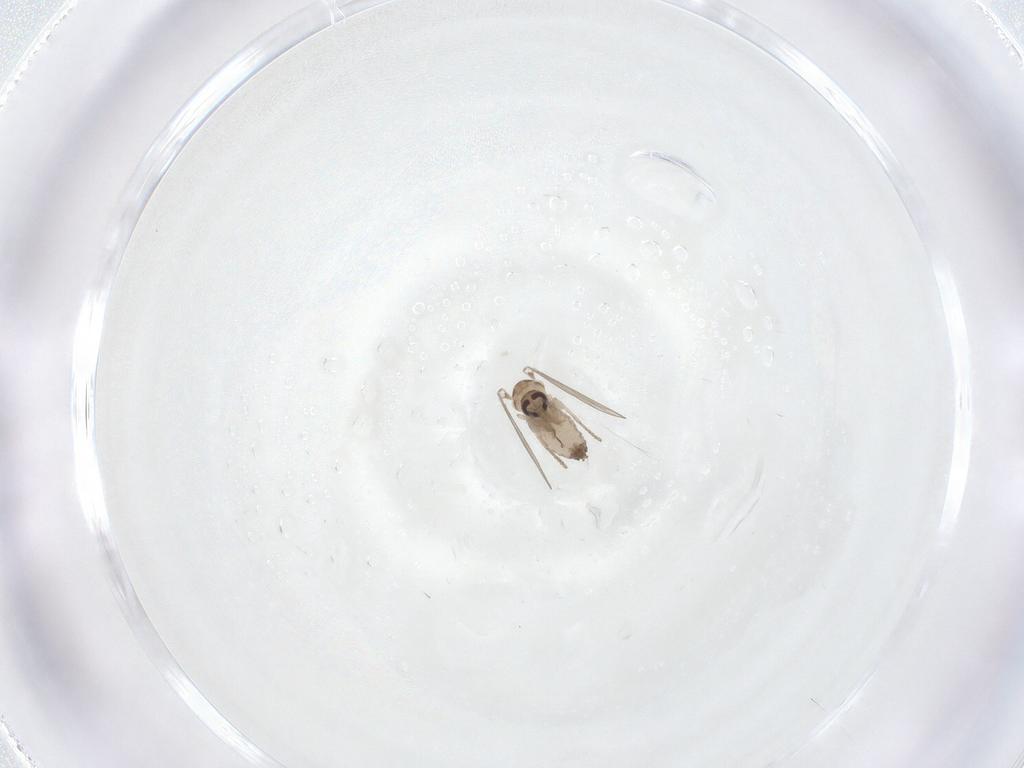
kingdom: Animalia
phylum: Arthropoda
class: Insecta
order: Diptera
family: Psychodidae
